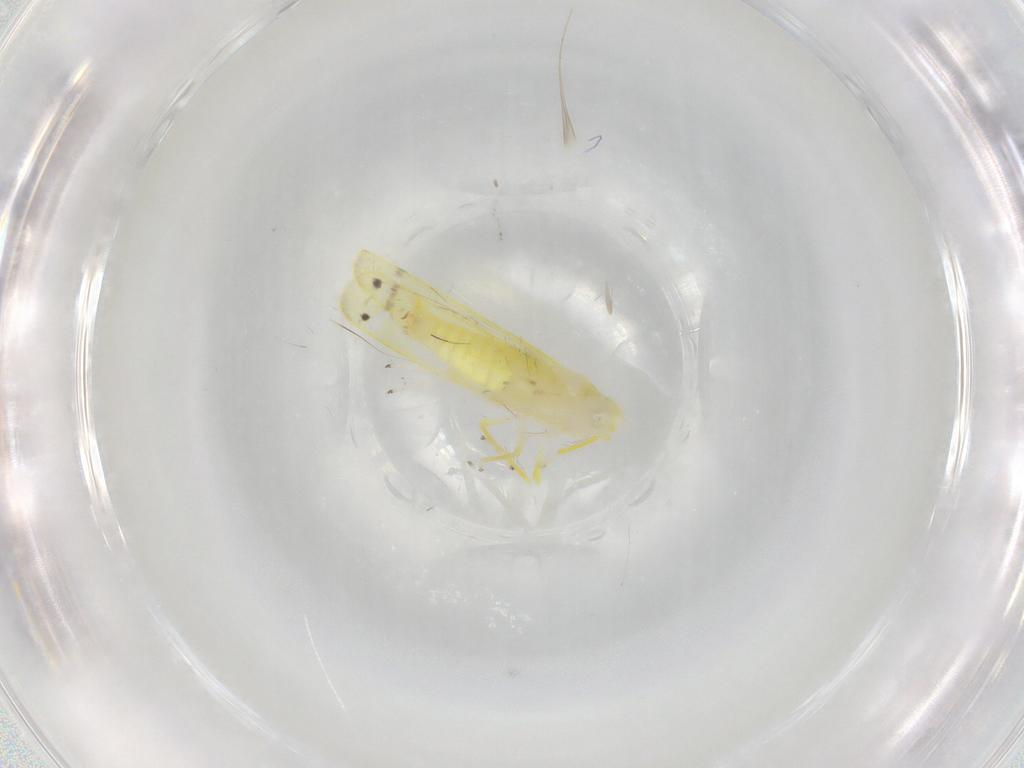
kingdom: Animalia
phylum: Arthropoda
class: Insecta
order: Hemiptera
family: Cicadellidae
